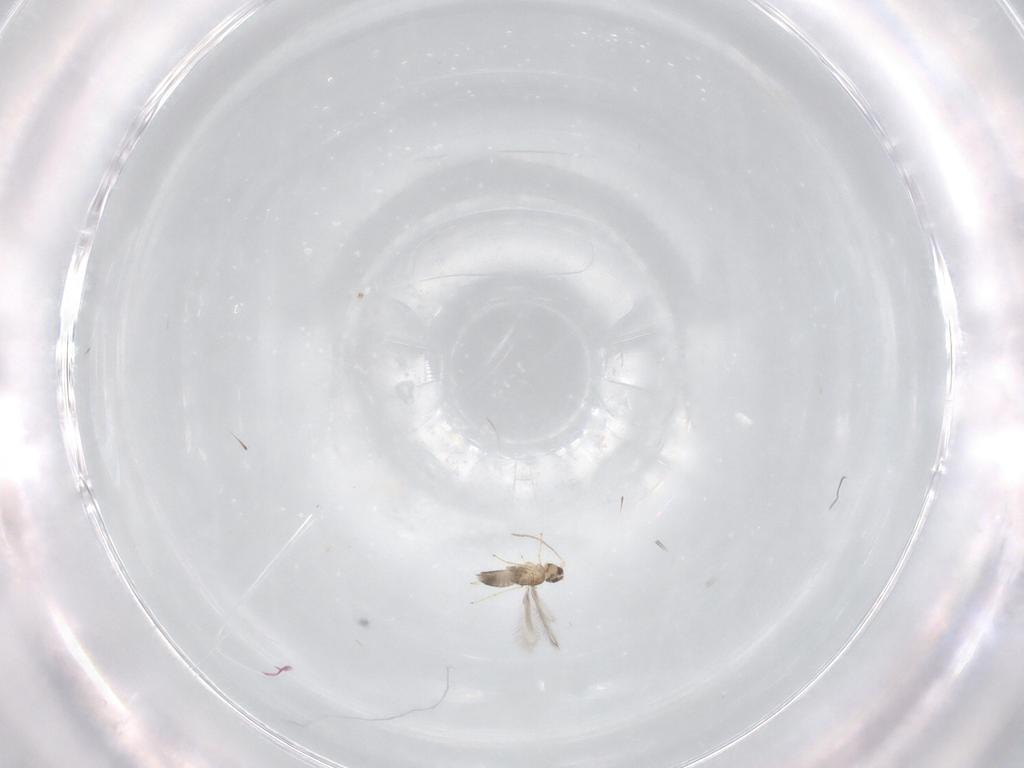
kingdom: Animalia
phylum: Arthropoda
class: Insecta
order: Hymenoptera
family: Mymaridae
